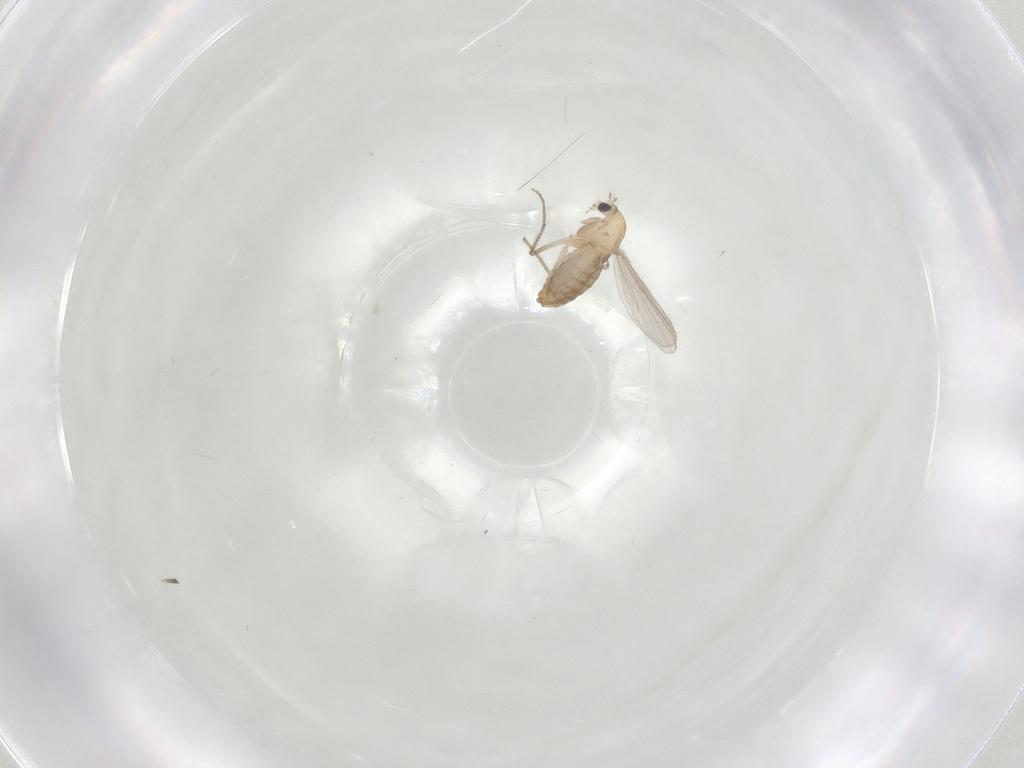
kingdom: Animalia
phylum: Arthropoda
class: Insecta
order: Diptera
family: Chironomidae
